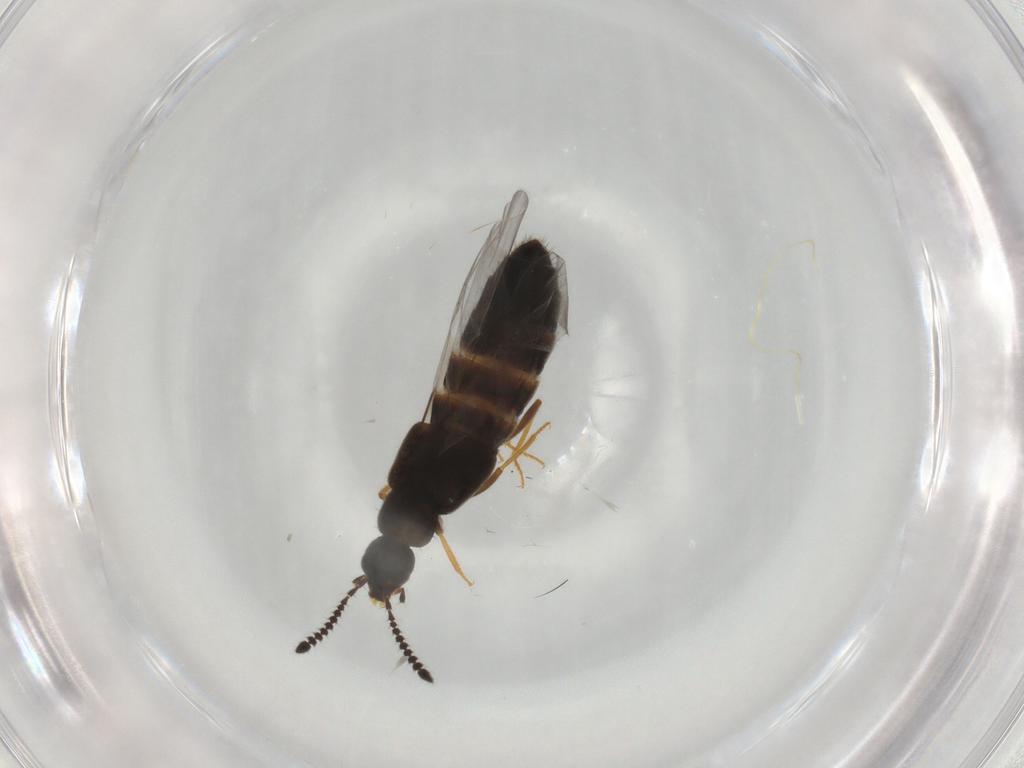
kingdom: Animalia
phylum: Arthropoda
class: Insecta
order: Coleoptera
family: Staphylinidae
